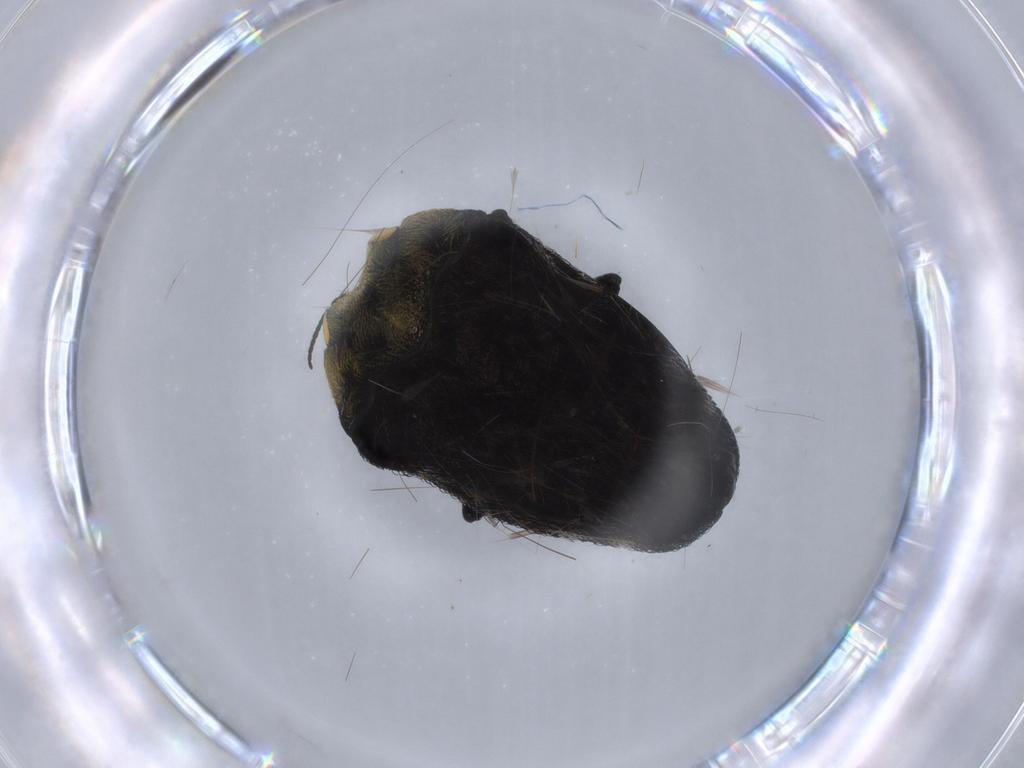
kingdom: Animalia
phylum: Arthropoda
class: Insecta
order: Coleoptera
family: Buprestidae
